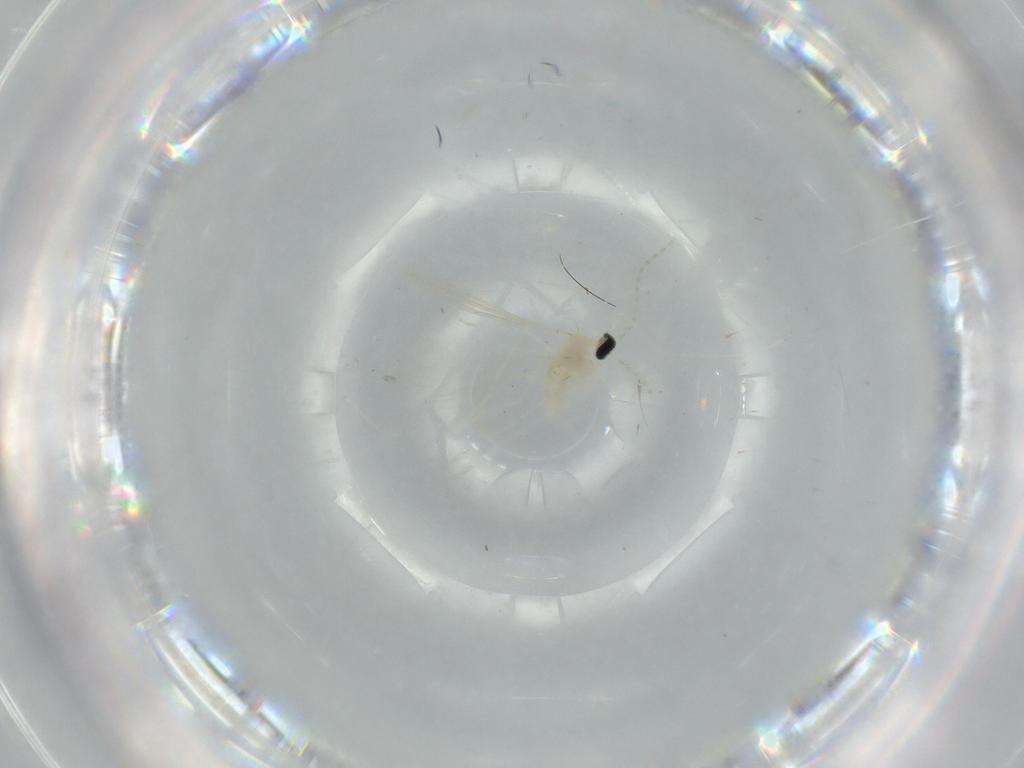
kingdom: Animalia
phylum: Arthropoda
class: Insecta
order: Diptera
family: Cecidomyiidae
